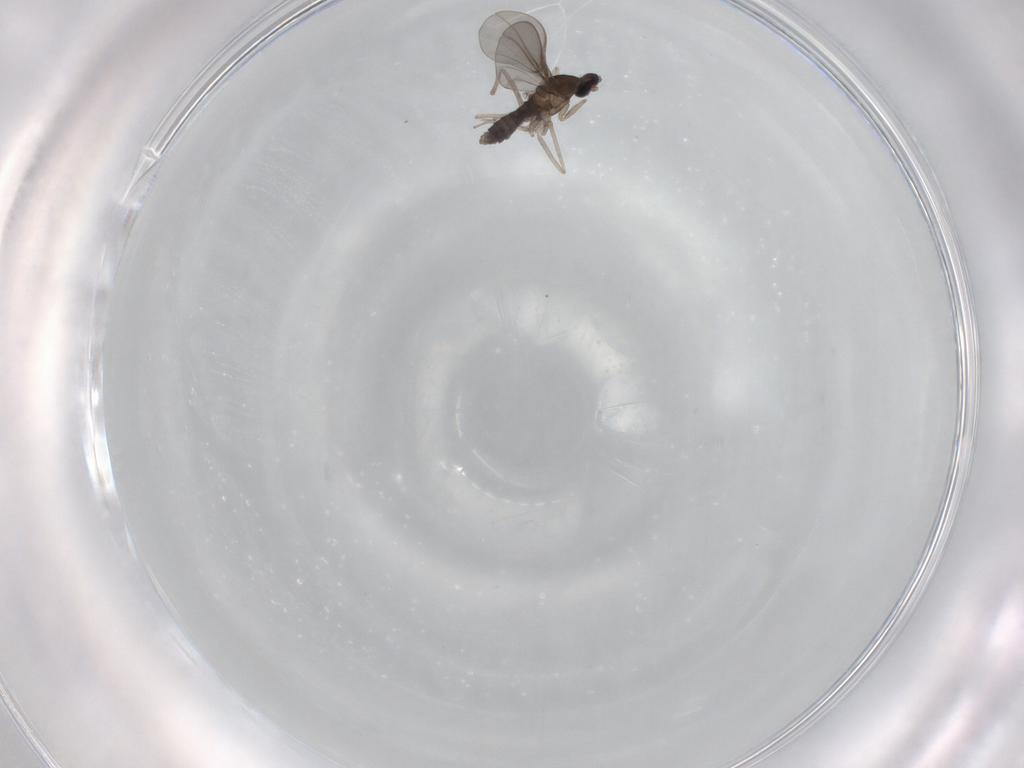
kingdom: Animalia
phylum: Arthropoda
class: Insecta
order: Diptera
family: Cecidomyiidae
